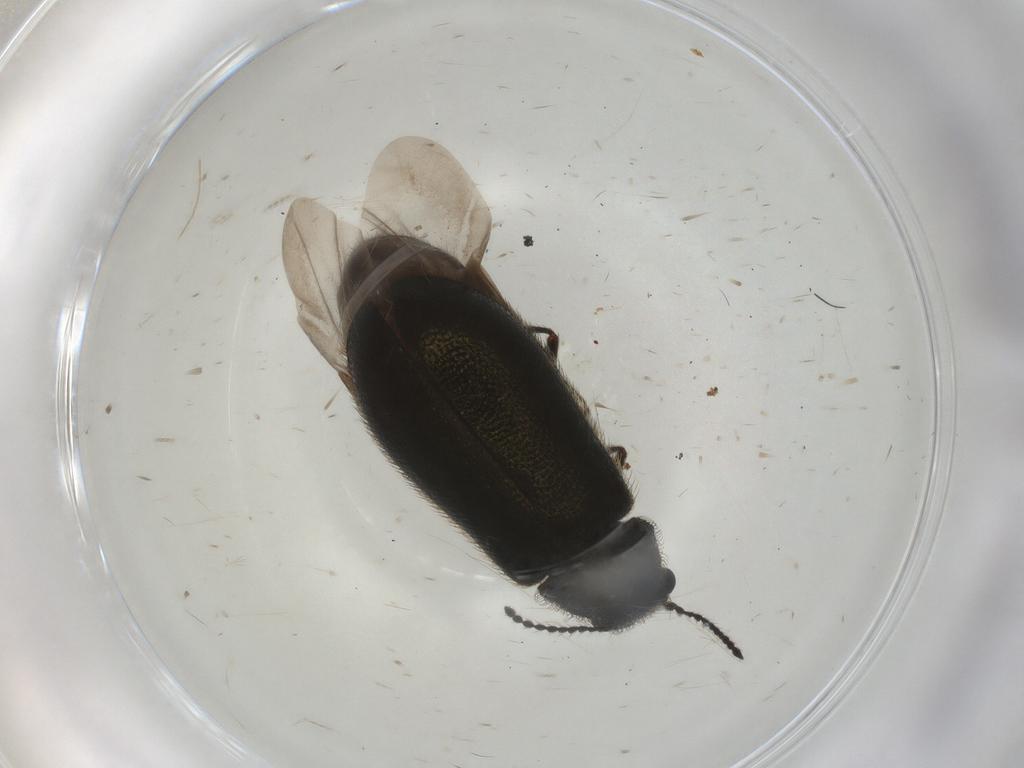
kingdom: Animalia
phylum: Arthropoda
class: Insecta
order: Coleoptera
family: Melyridae
